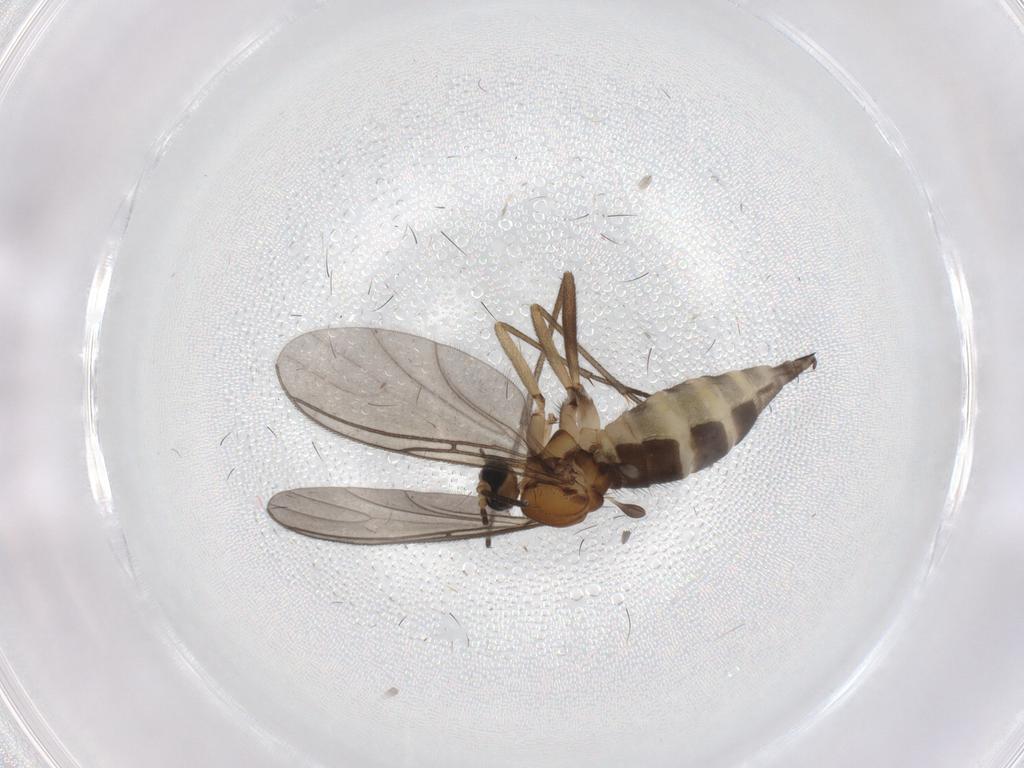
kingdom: Animalia
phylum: Arthropoda
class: Insecta
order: Diptera
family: Sciaridae
